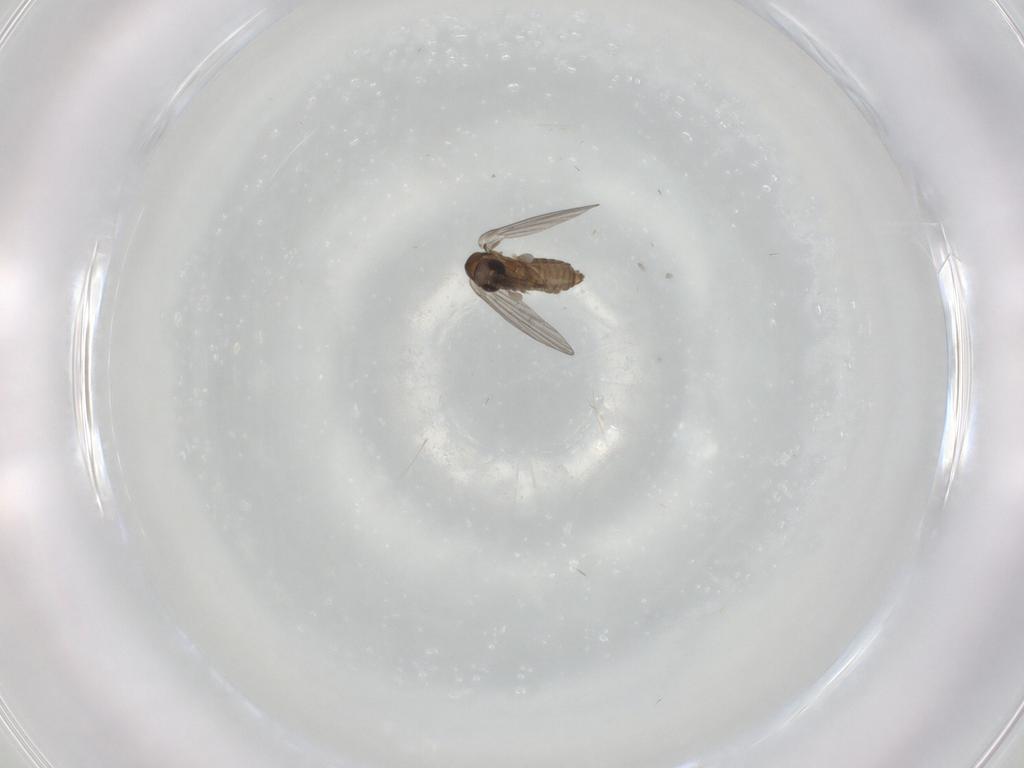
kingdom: Animalia
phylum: Arthropoda
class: Insecta
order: Diptera
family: Psychodidae
